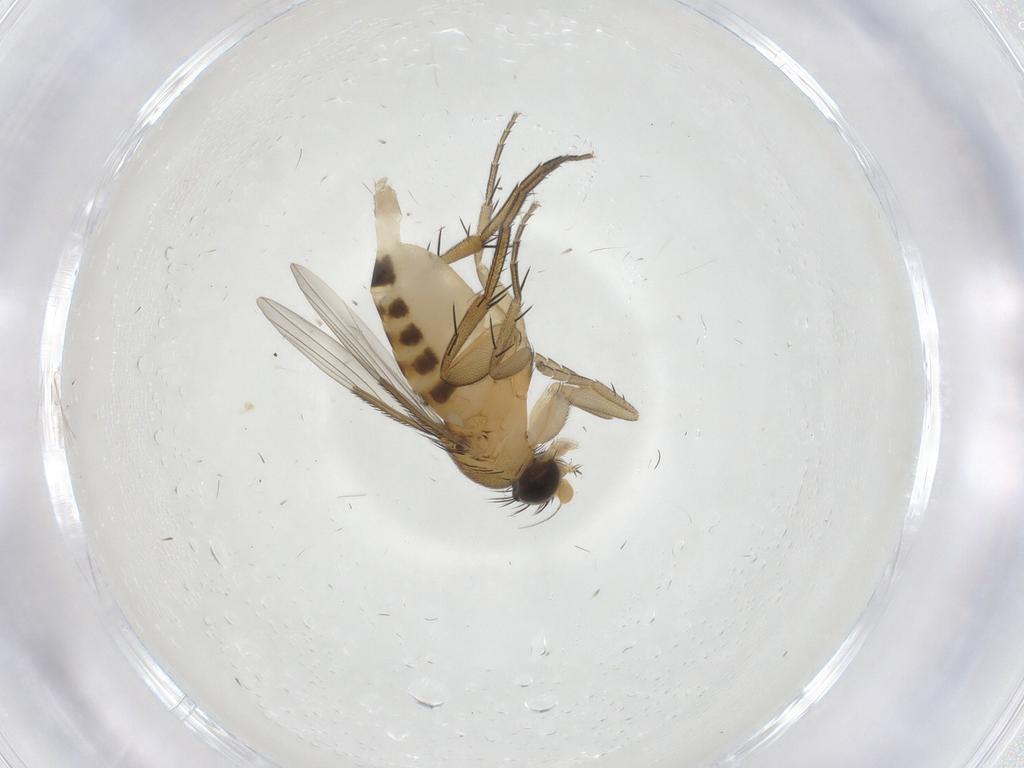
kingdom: Animalia
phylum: Arthropoda
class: Insecta
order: Diptera
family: Phoridae
